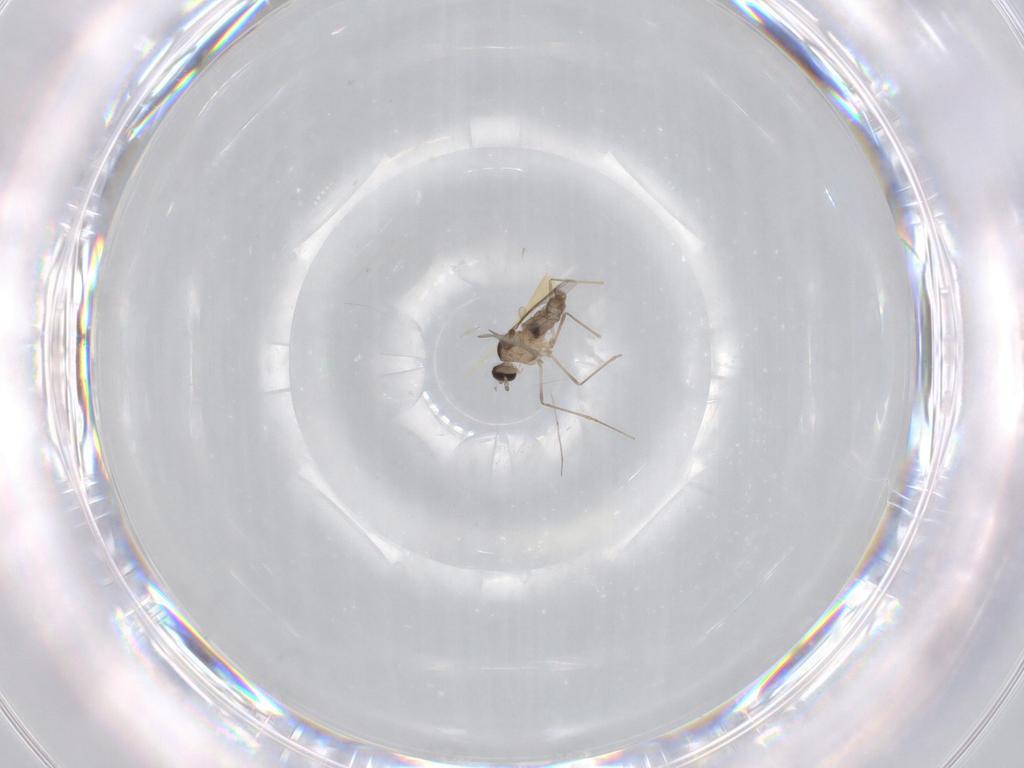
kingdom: Animalia
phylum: Arthropoda
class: Insecta
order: Diptera
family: Cecidomyiidae
